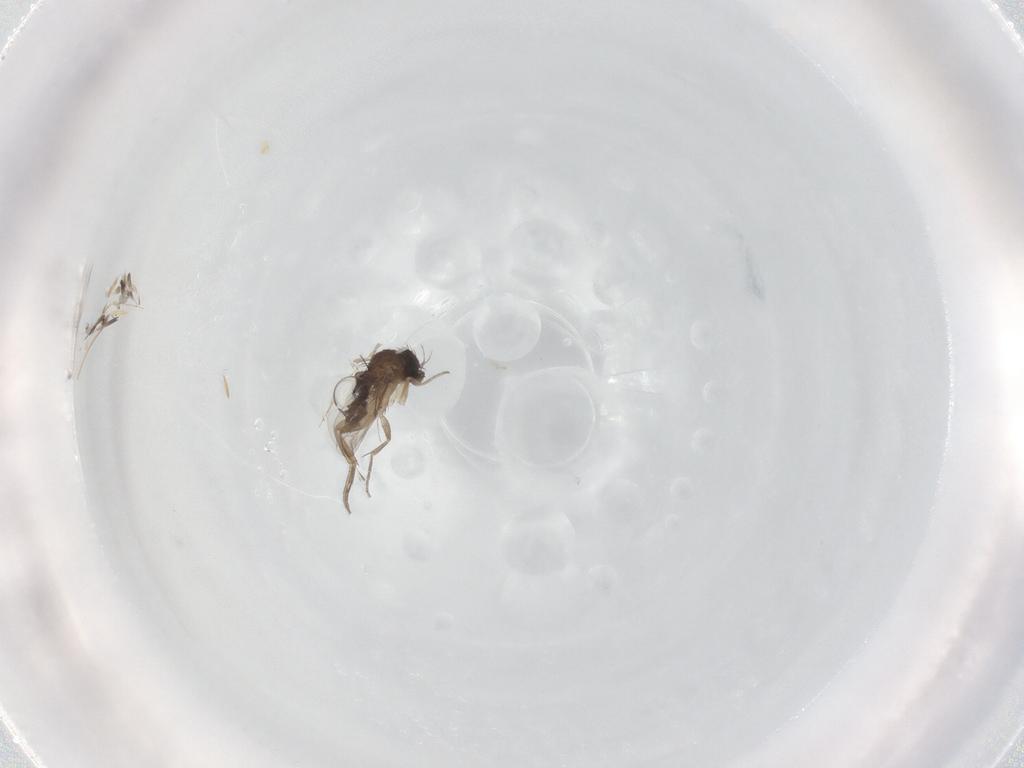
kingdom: Animalia
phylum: Arthropoda
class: Insecta
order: Diptera
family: Phoridae
